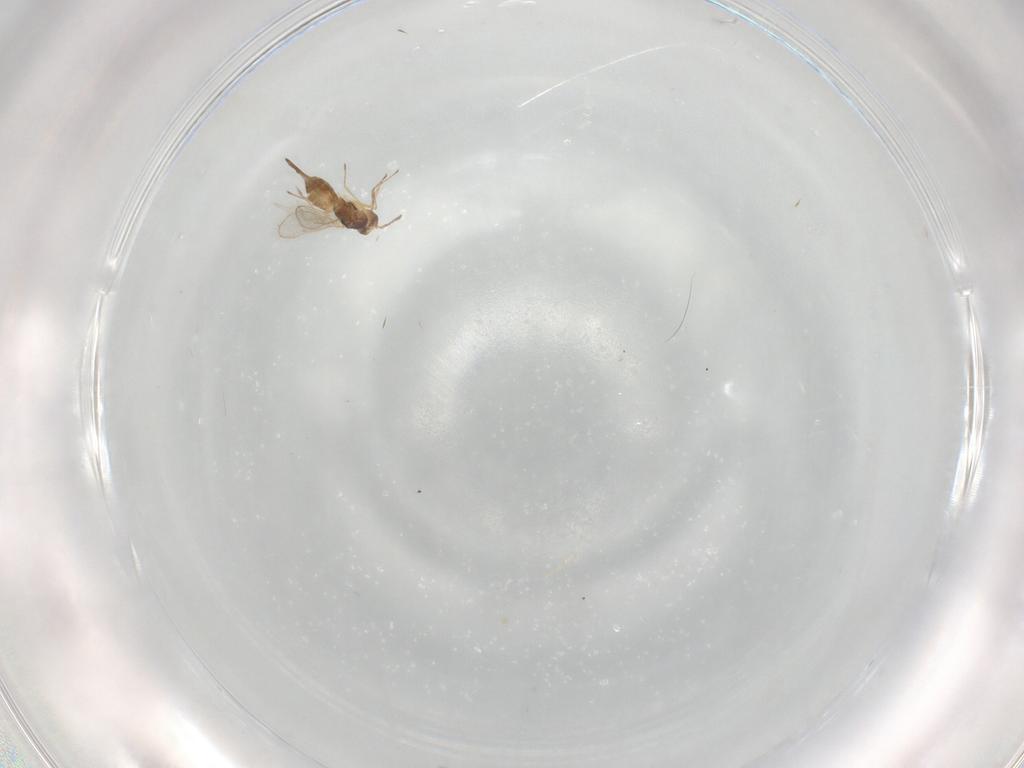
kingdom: Animalia
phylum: Arthropoda
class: Insecta
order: Hymenoptera
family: Eulophidae
